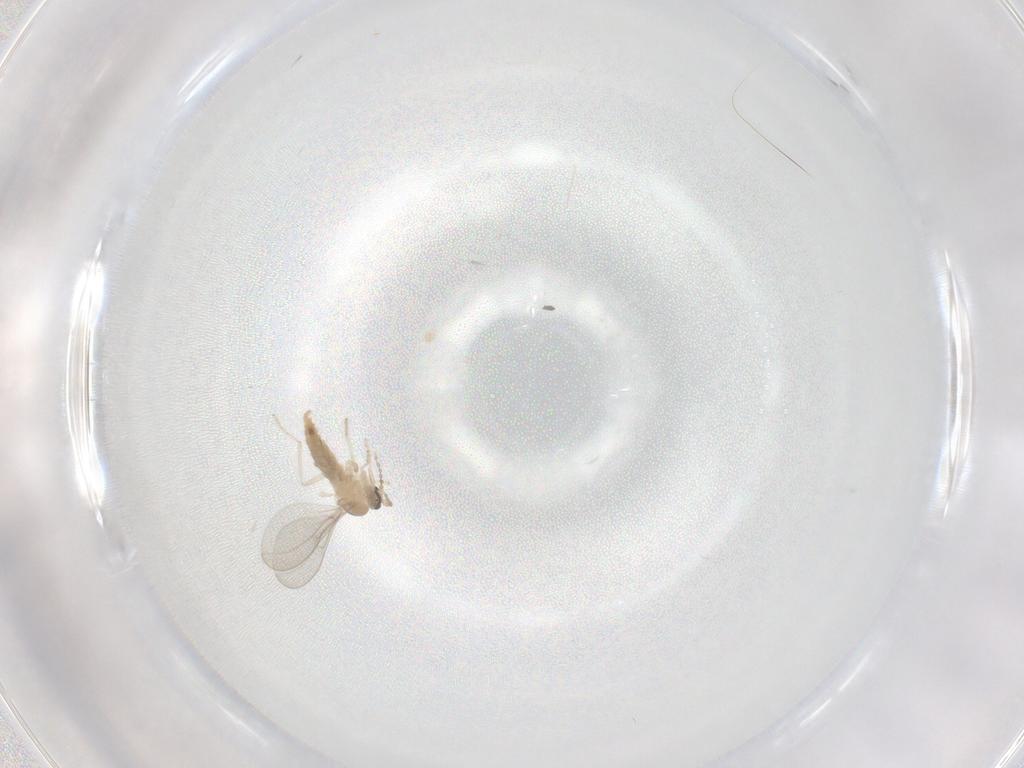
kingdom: Animalia
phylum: Arthropoda
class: Insecta
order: Diptera
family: Cecidomyiidae
